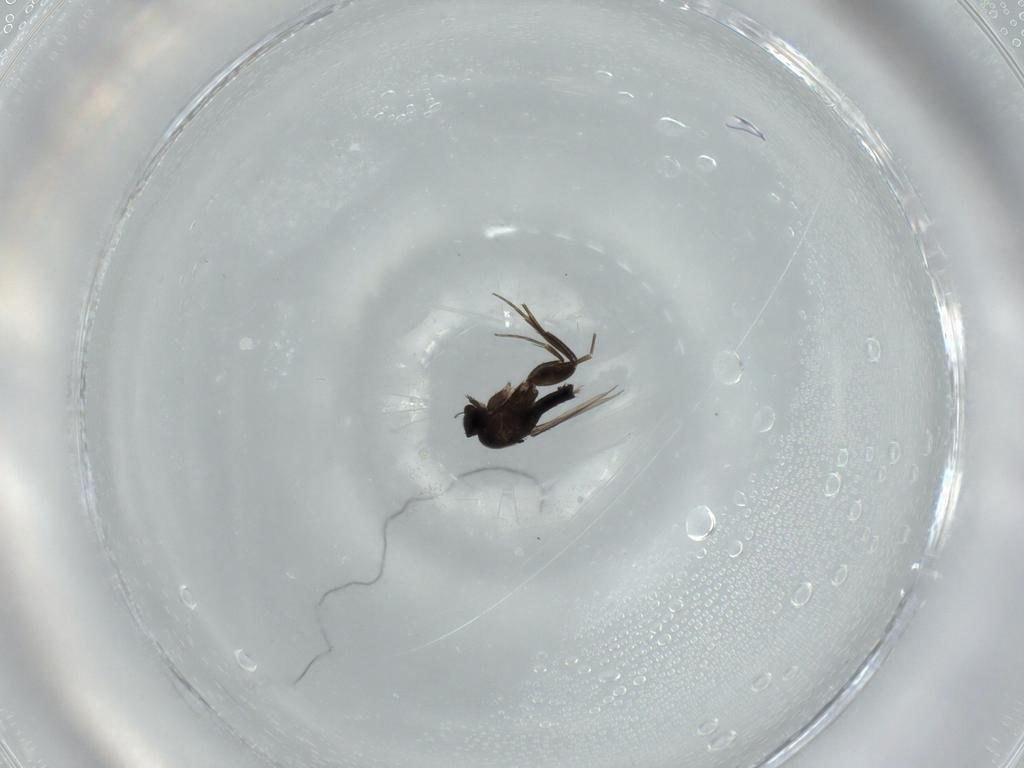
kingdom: Animalia
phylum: Arthropoda
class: Insecta
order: Diptera
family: Phoridae
